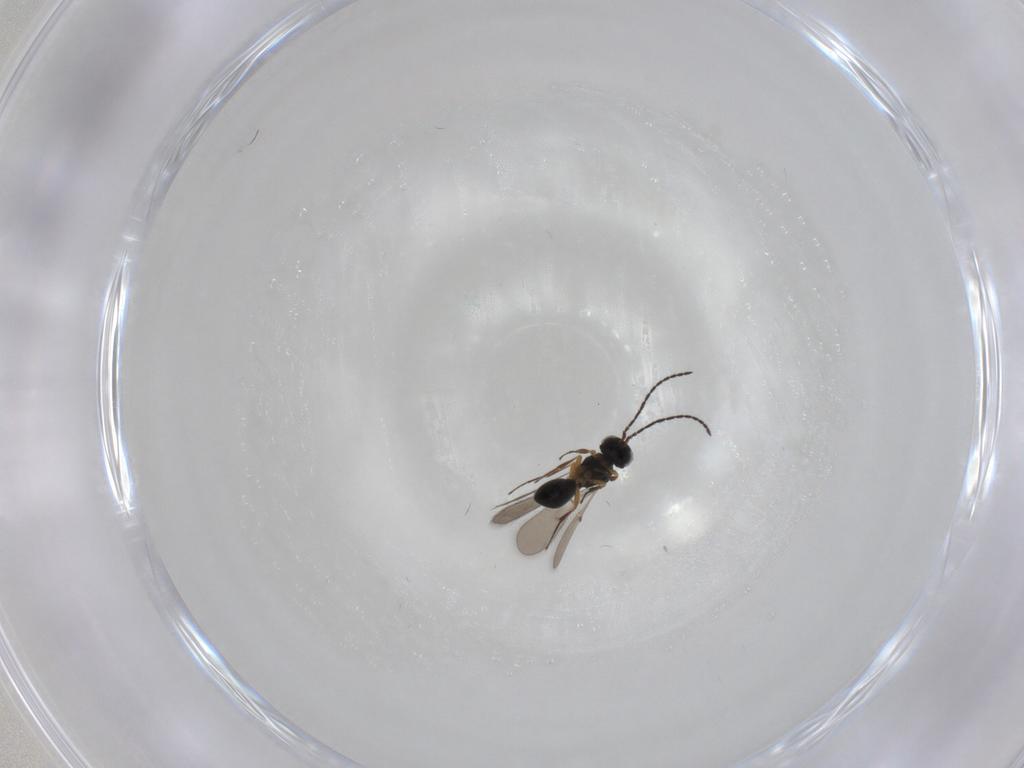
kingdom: Animalia
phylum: Arthropoda
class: Insecta
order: Hymenoptera
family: Scelionidae
